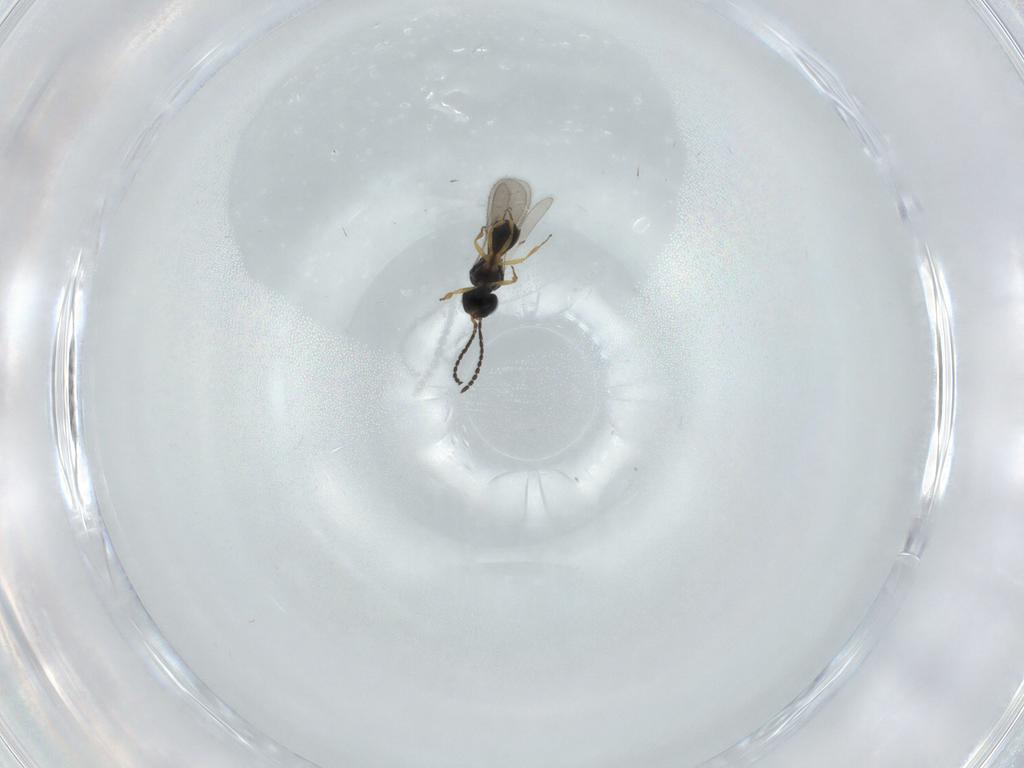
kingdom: Animalia
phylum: Arthropoda
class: Insecta
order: Hymenoptera
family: Scelionidae
